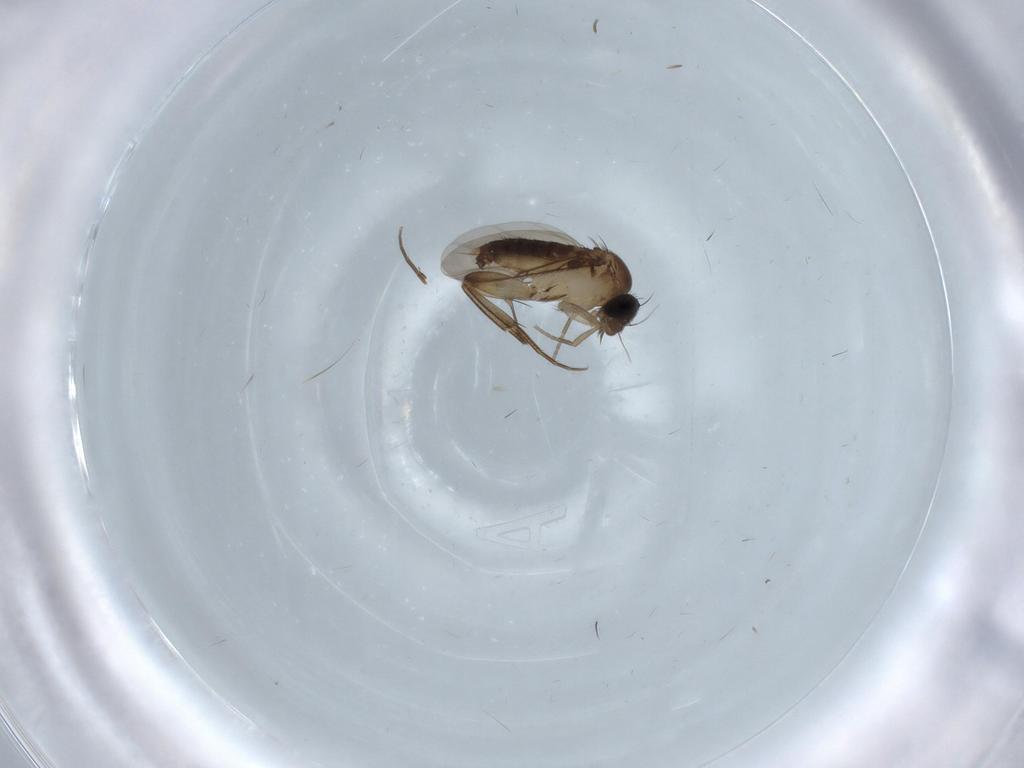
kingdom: Animalia
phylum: Arthropoda
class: Insecta
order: Diptera
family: Phoridae
